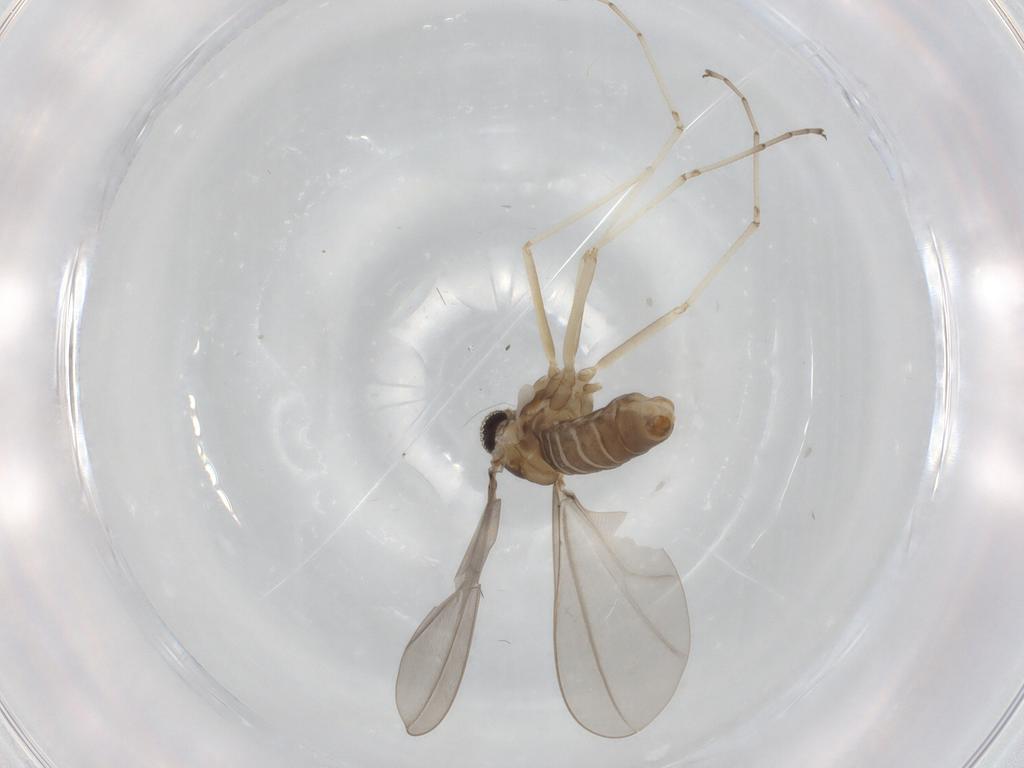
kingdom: Animalia
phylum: Arthropoda
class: Insecta
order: Diptera
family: Cecidomyiidae
